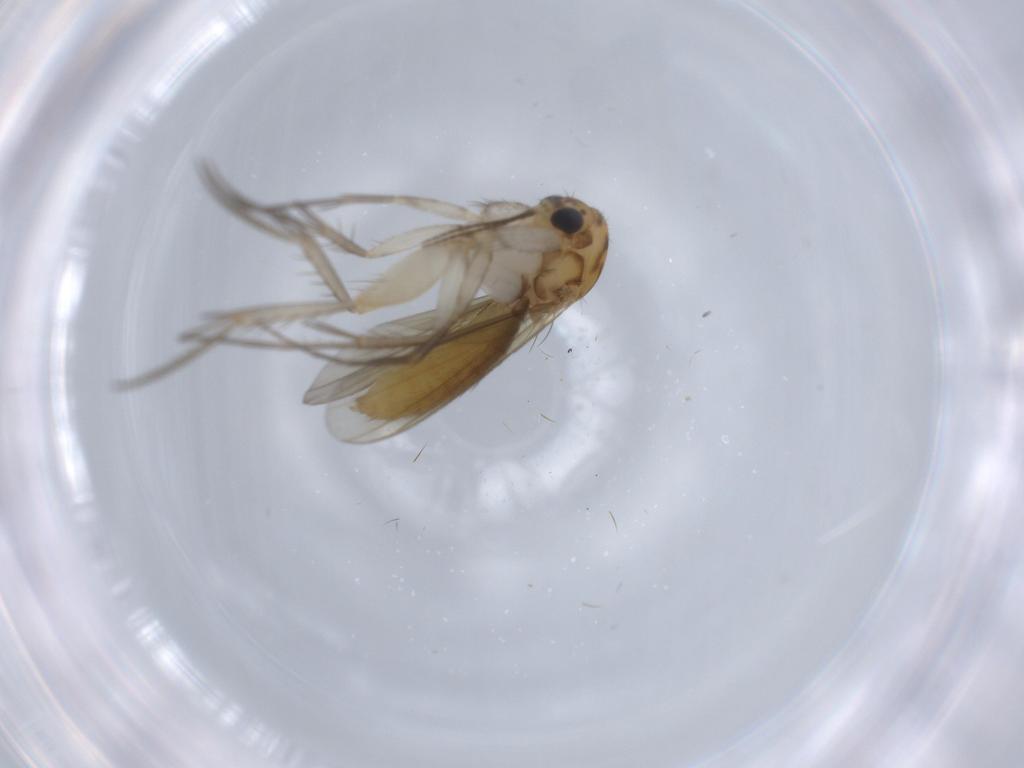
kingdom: Animalia
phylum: Arthropoda
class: Insecta
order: Diptera
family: Mycetophilidae
